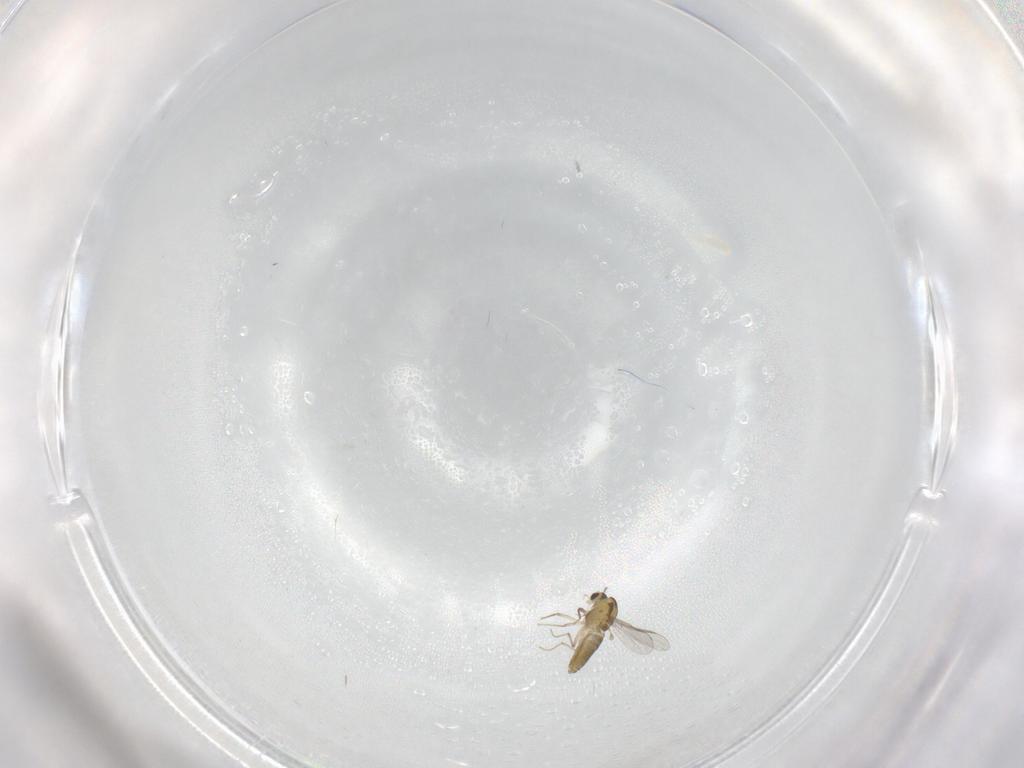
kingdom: Animalia
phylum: Arthropoda
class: Insecta
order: Diptera
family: Chironomidae
